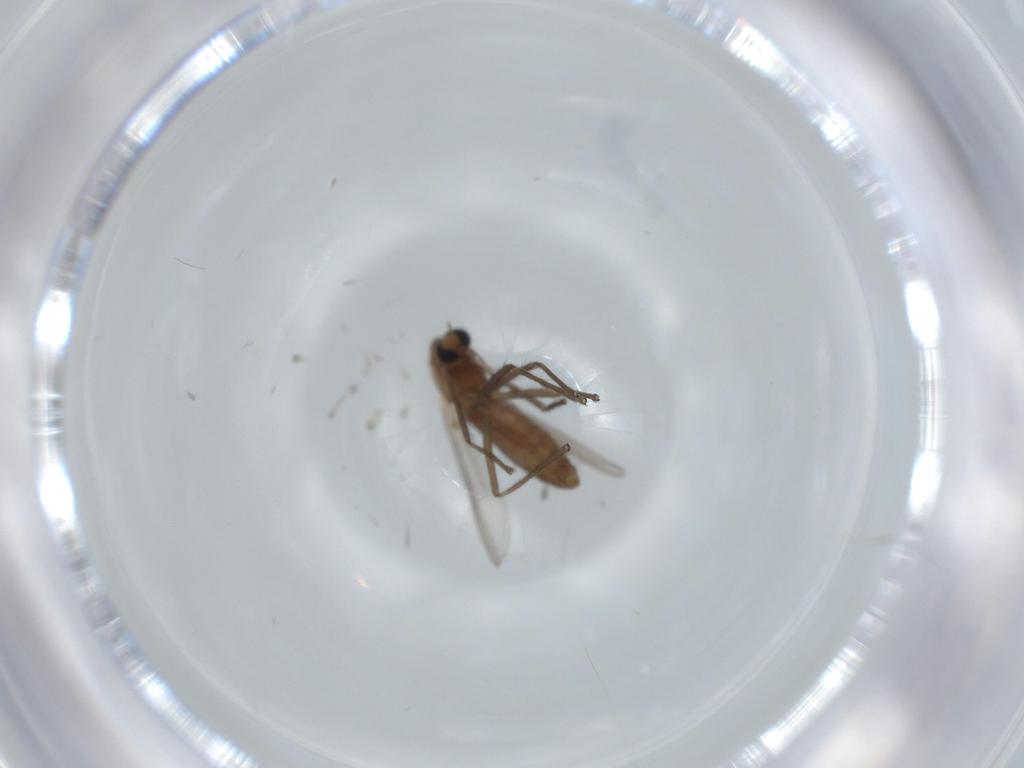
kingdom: Animalia
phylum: Arthropoda
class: Insecta
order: Diptera
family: Chironomidae
